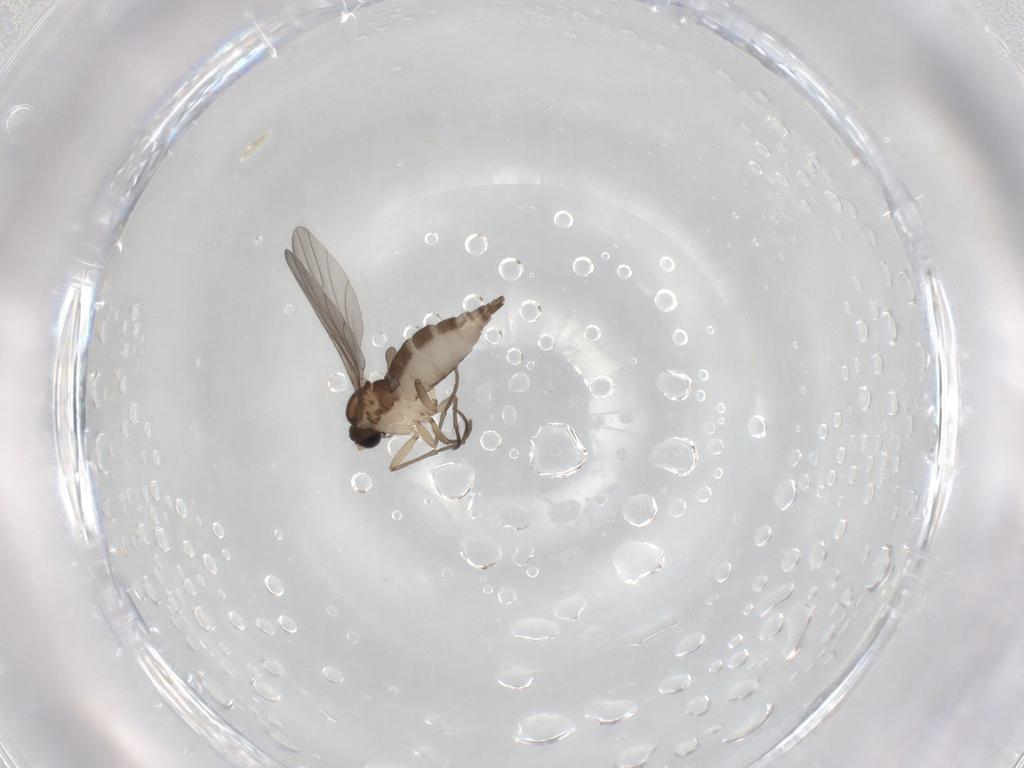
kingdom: Animalia
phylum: Arthropoda
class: Insecta
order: Diptera
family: Sciaridae
